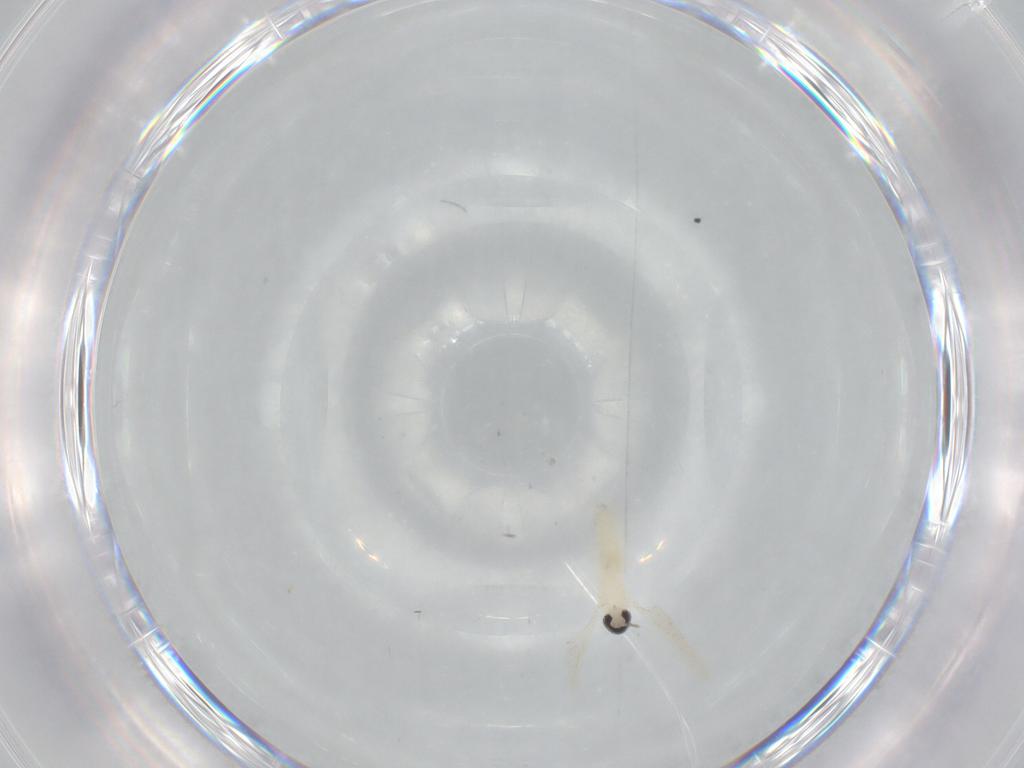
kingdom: Animalia
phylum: Arthropoda
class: Insecta
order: Diptera
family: Cecidomyiidae
